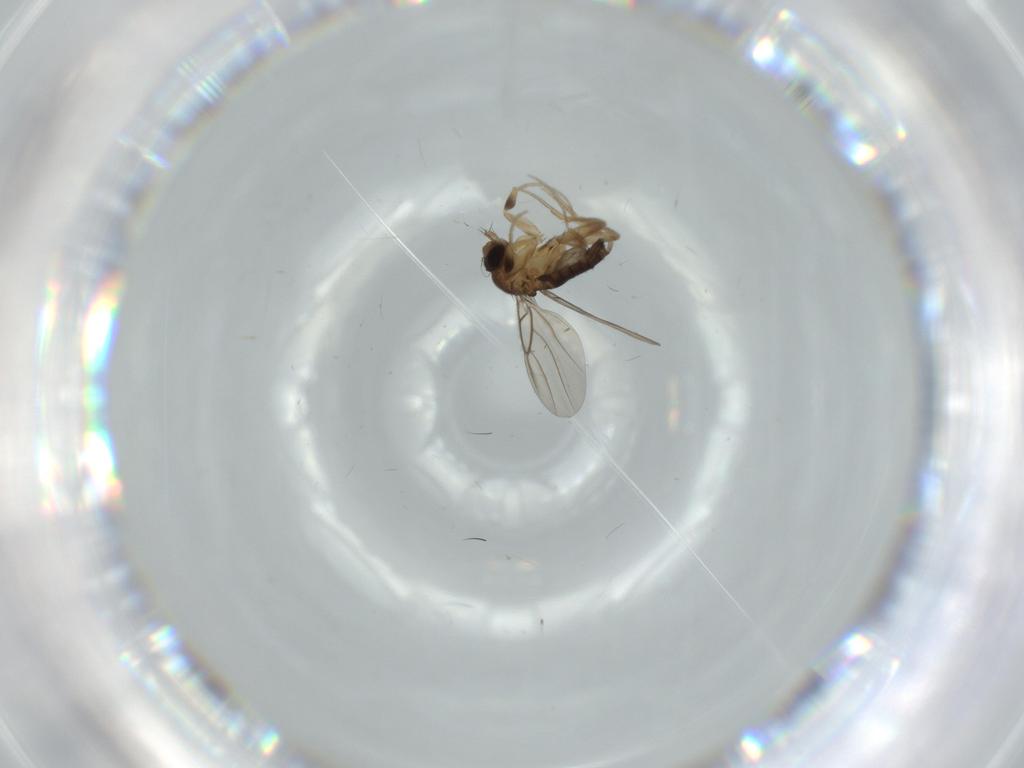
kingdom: Animalia
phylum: Arthropoda
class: Insecta
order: Diptera
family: Phoridae
